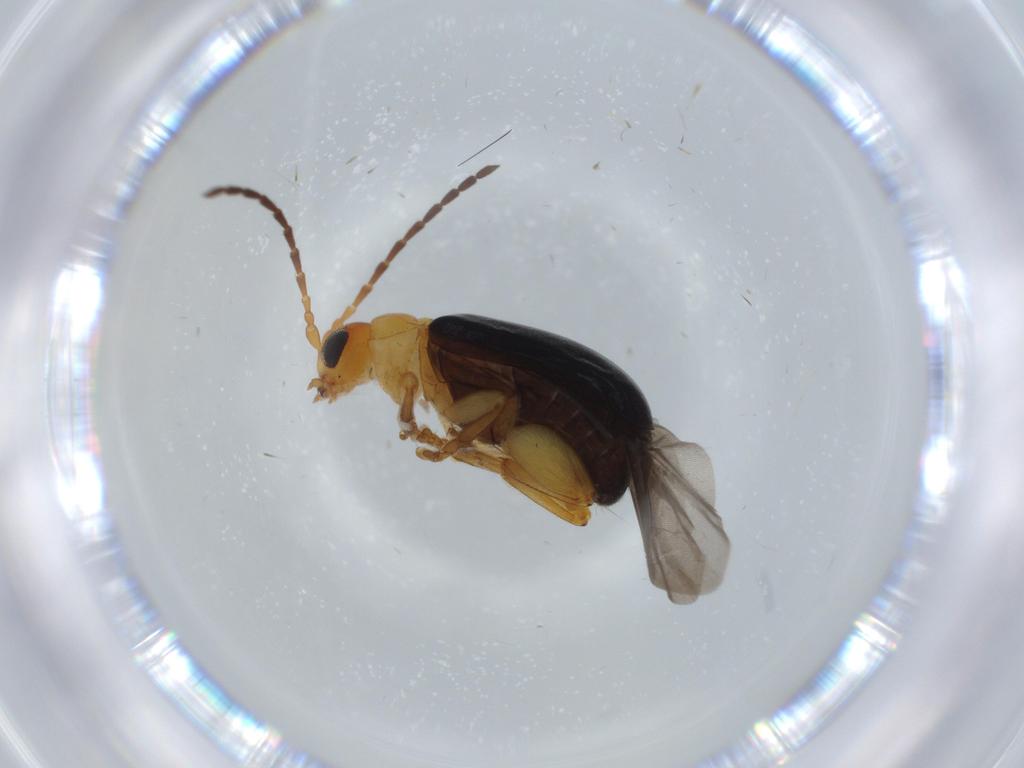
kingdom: Animalia
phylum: Arthropoda
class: Insecta
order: Coleoptera
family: Chrysomelidae
